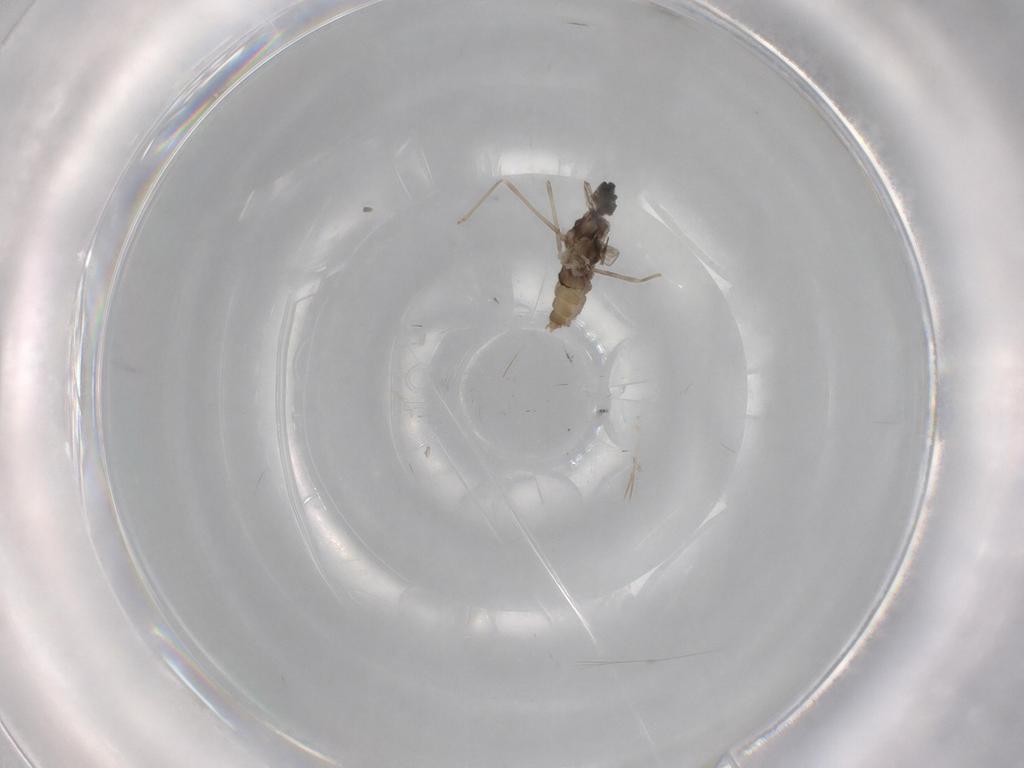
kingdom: Animalia
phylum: Arthropoda
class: Insecta
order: Diptera
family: Cecidomyiidae
